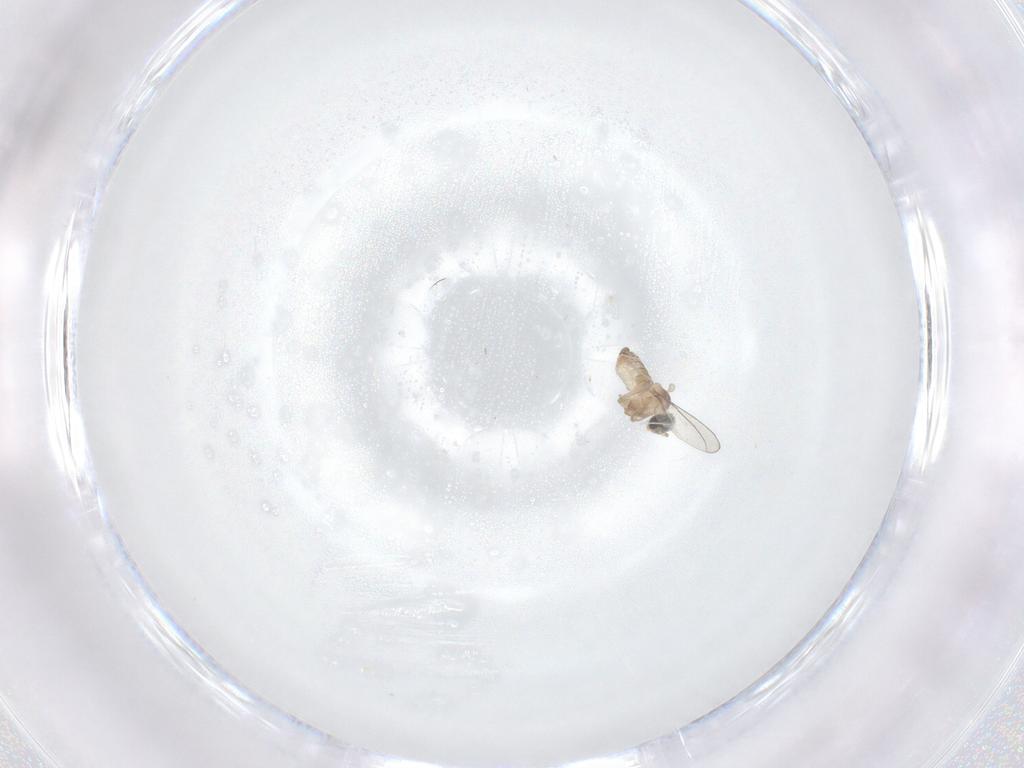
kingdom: Animalia
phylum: Arthropoda
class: Insecta
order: Diptera
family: Cecidomyiidae
